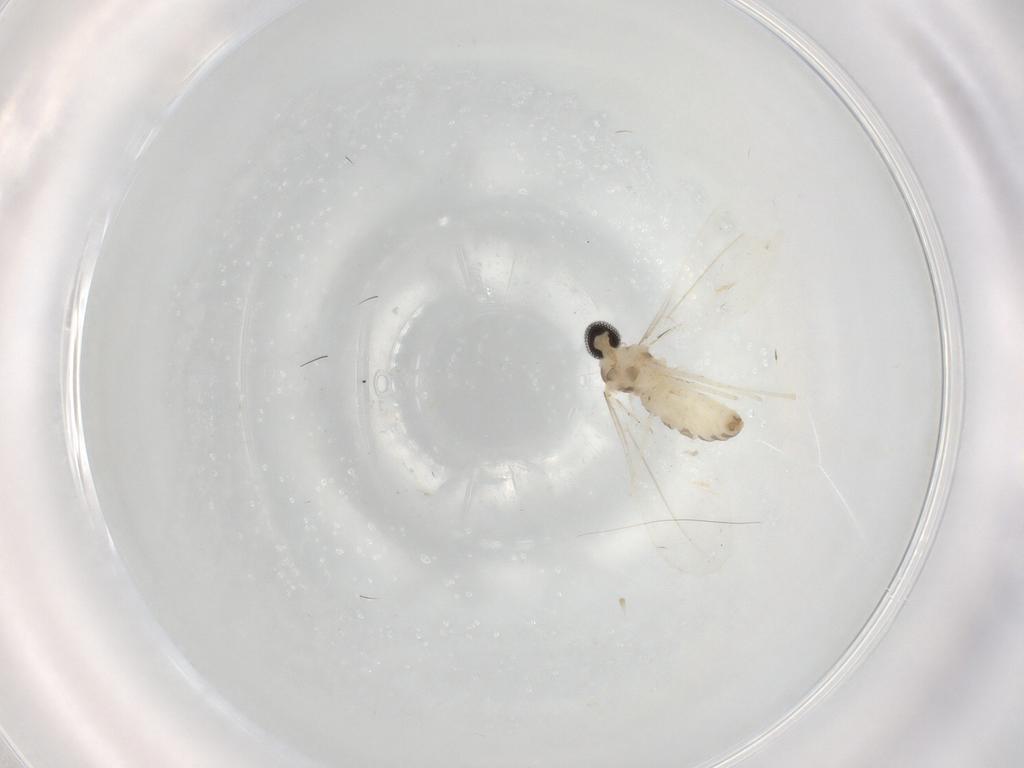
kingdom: Animalia
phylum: Arthropoda
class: Insecta
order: Diptera
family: Cecidomyiidae
